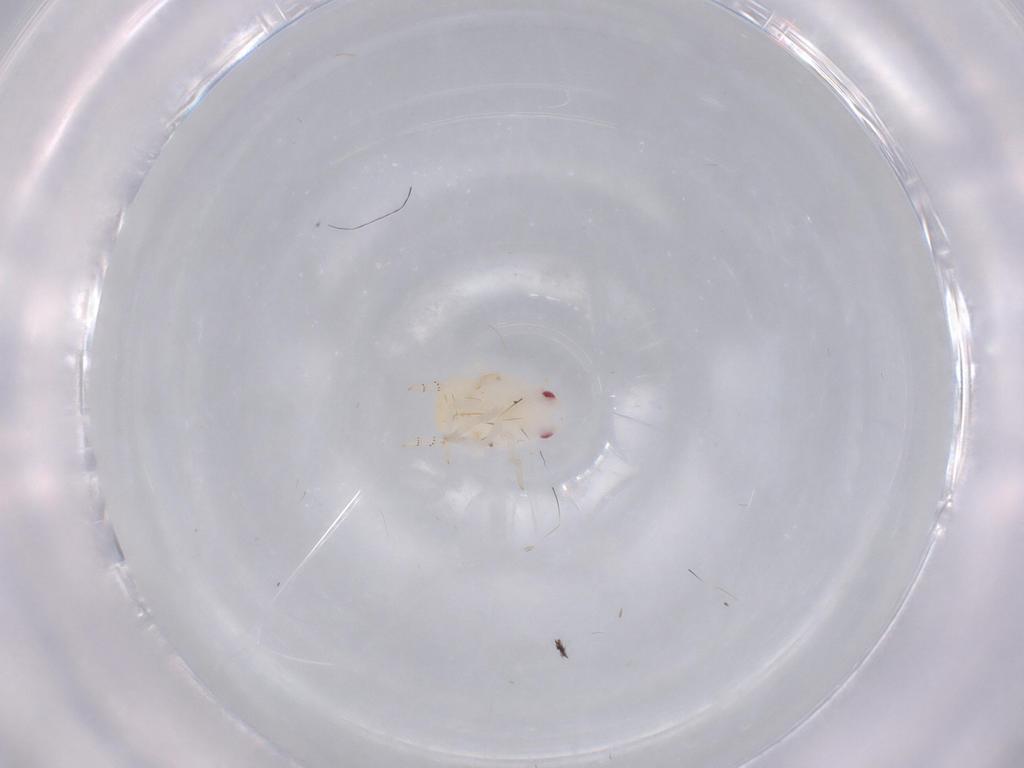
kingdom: Animalia
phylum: Arthropoda
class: Insecta
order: Hemiptera
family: Flatidae
